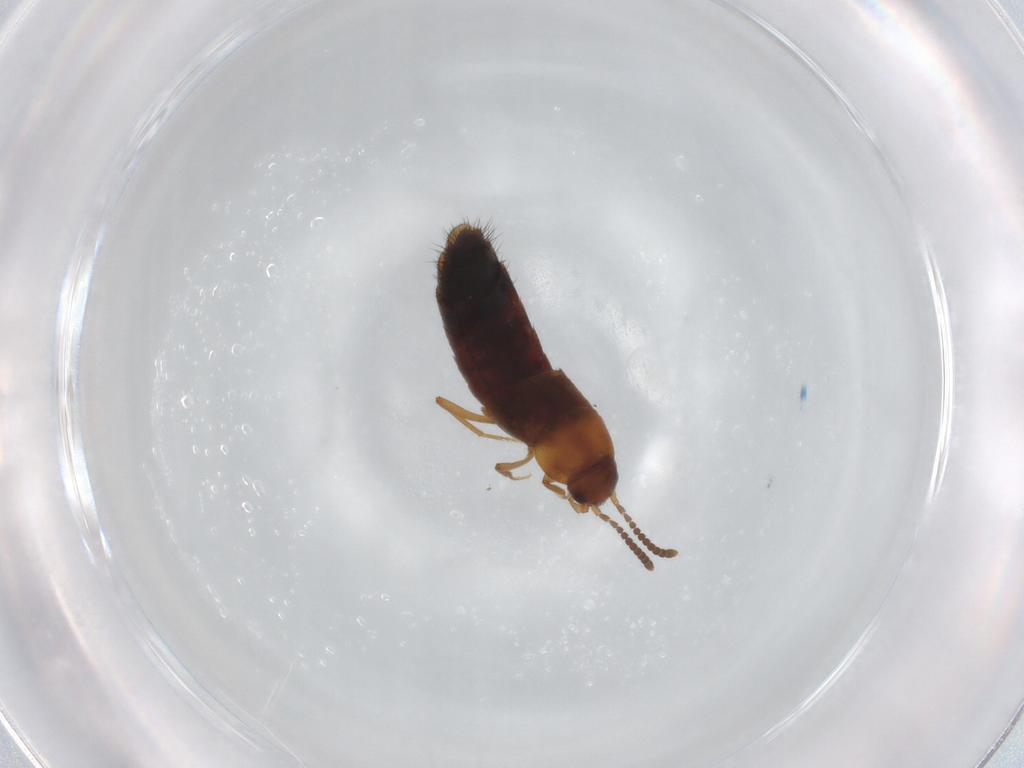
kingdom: Animalia
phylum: Arthropoda
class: Insecta
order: Coleoptera
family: Staphylinidae
